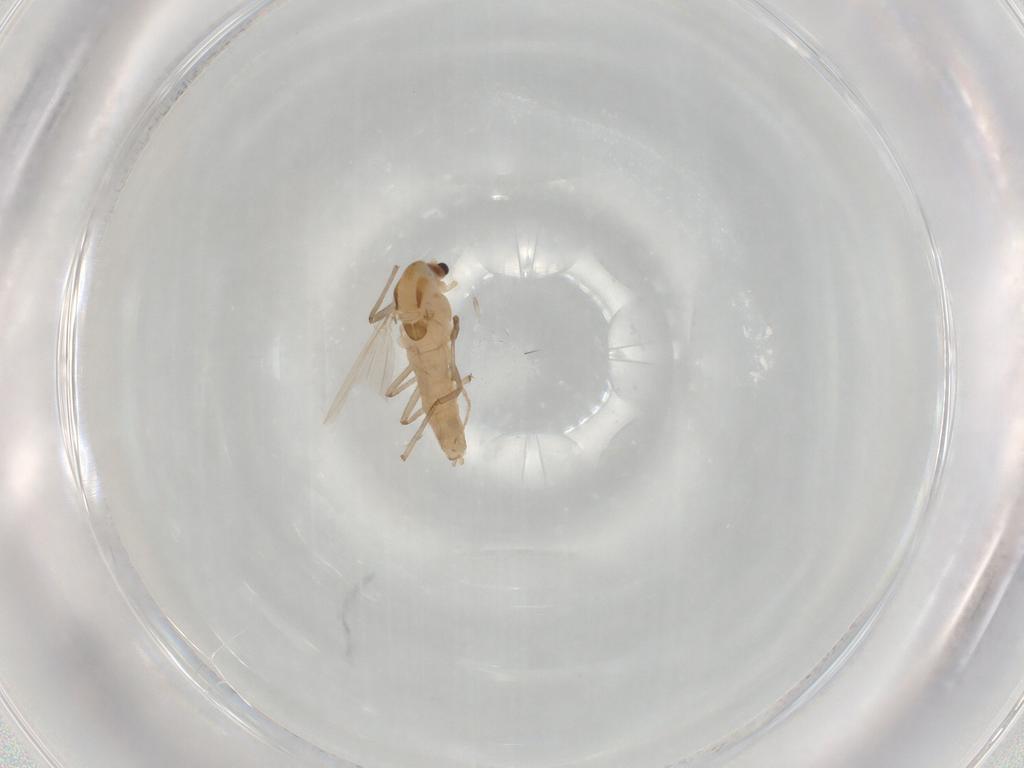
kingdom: Animalia
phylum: Arthropoda
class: Insecta
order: Diptera
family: Chironomidae
